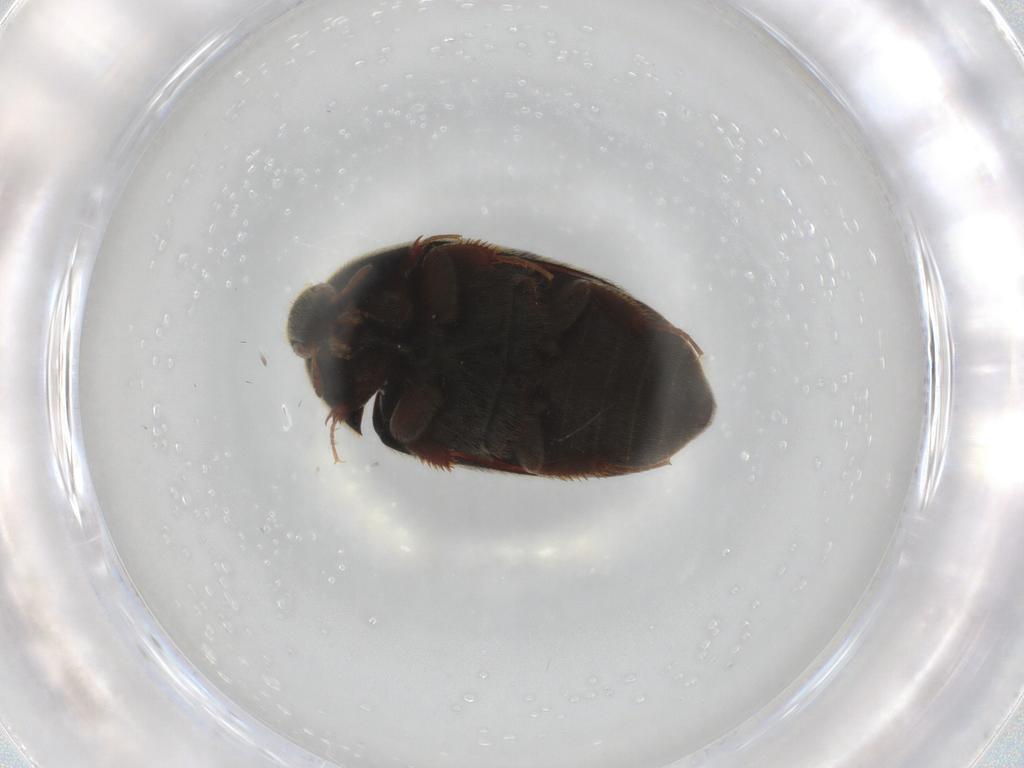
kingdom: Animalia
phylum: Arthropoda
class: Insecta
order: Coleoptera
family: Dermestidae
